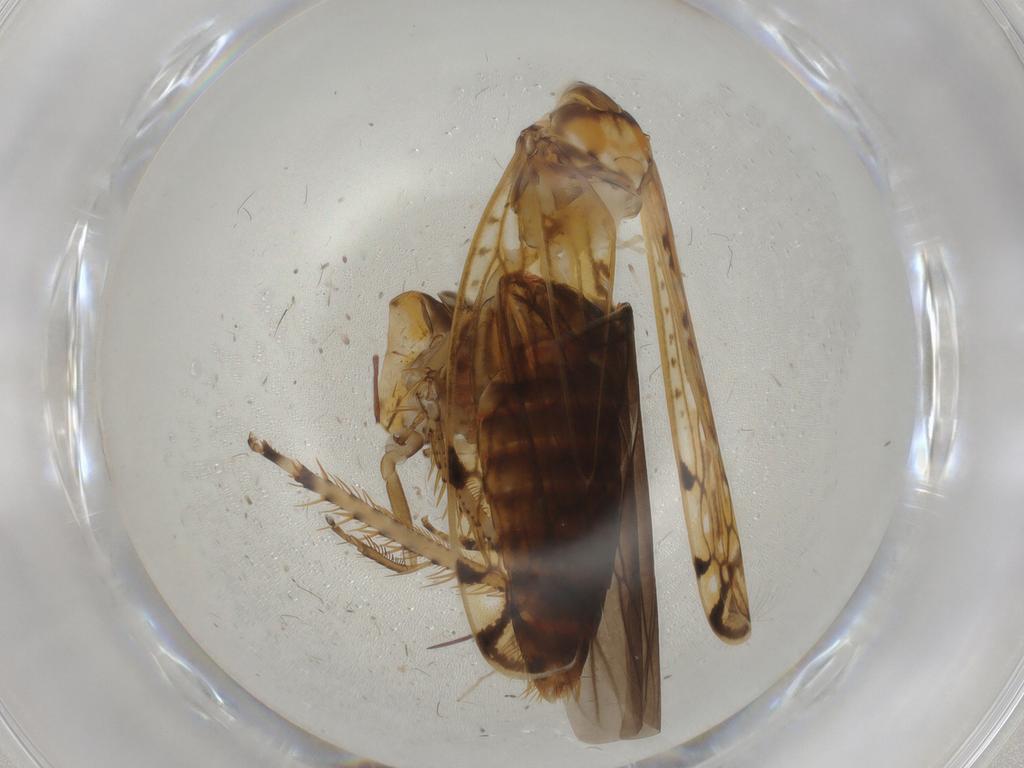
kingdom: Animalia
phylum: Arthropoda
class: Insecta
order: Hemiptera
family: Cicadellidae
